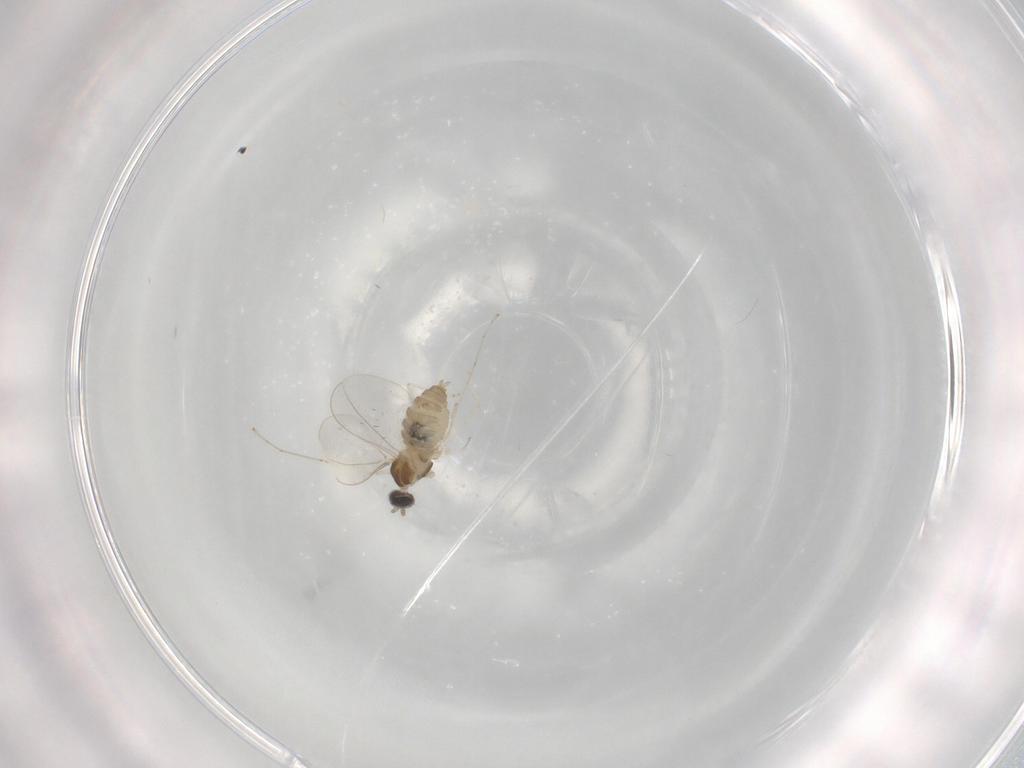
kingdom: Animalia
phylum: Arthropoda
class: Insecta
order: Diptera
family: Cecidomyiidae
